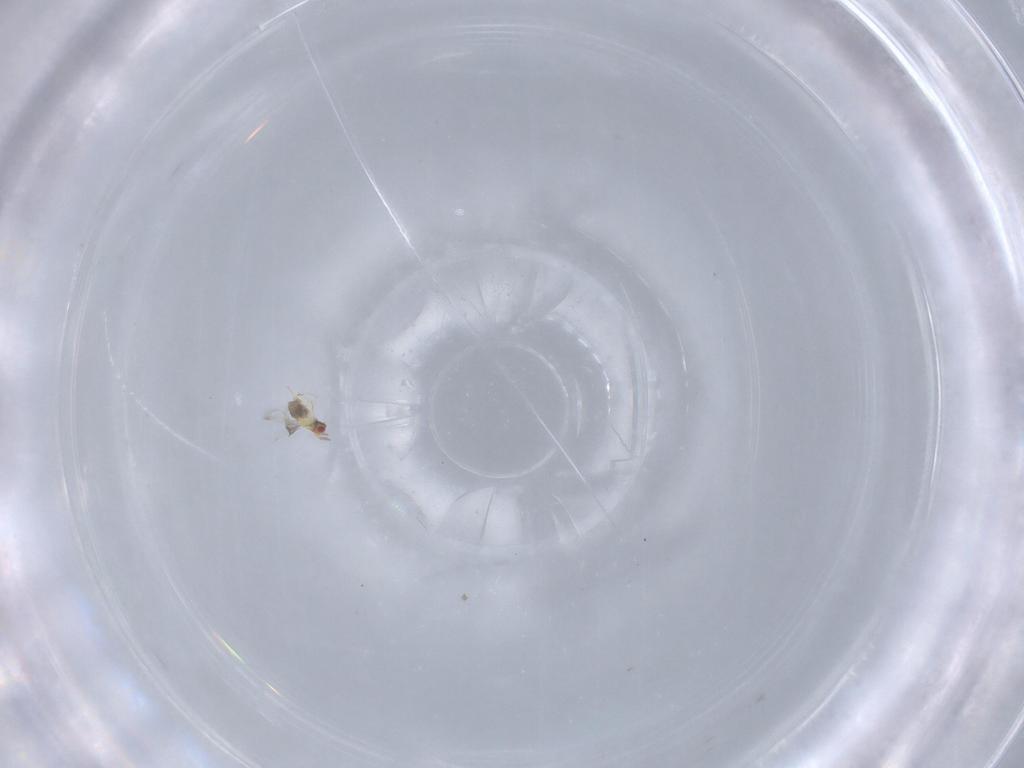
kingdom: Animalia
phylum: Arthropoda
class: Insecta
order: Hymenoptera
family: Trichogrammatidae
